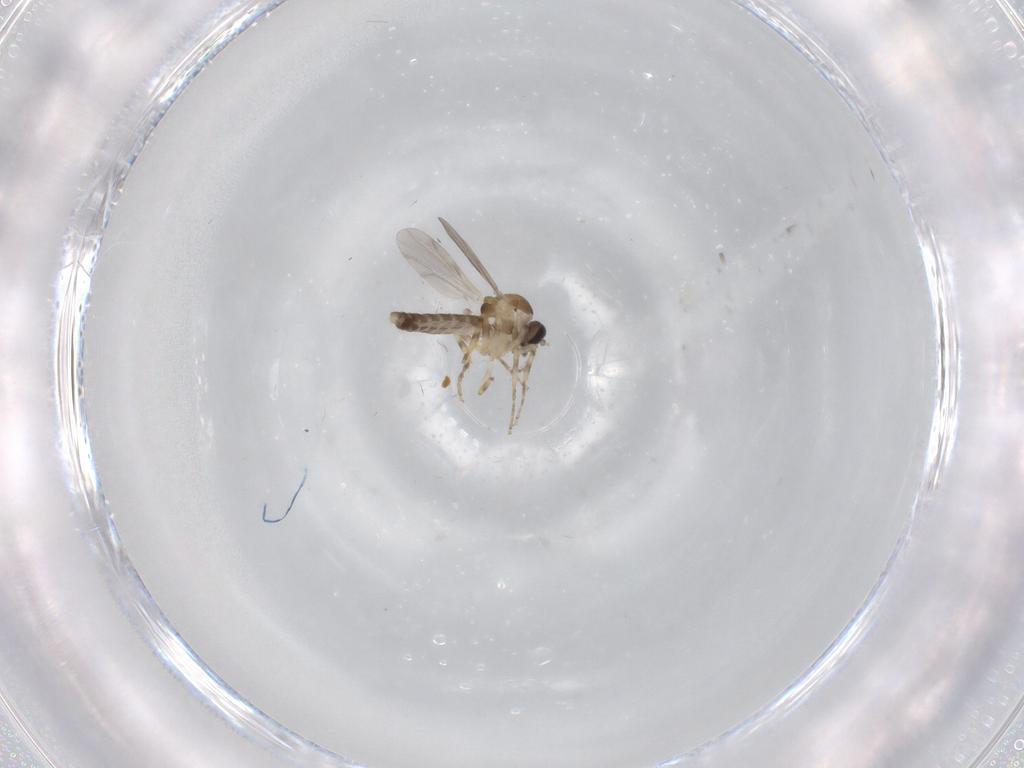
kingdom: Animalia
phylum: Arthropoda
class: Insecta
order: Diptera
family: Ceratopogonidae
